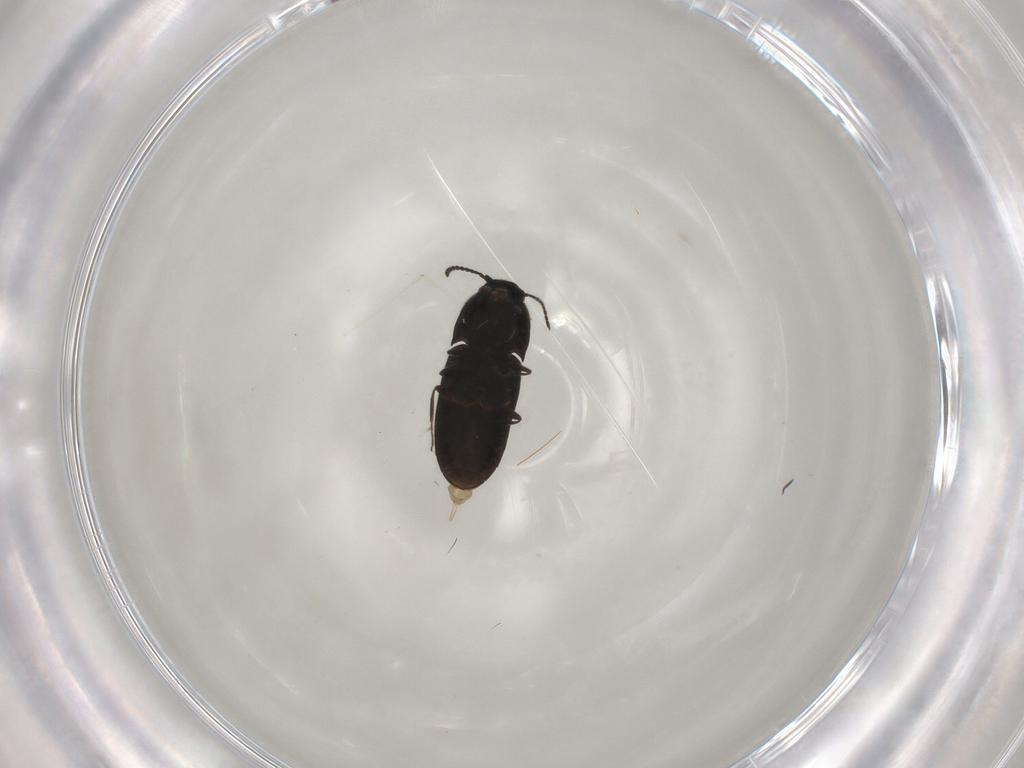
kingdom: Animalia
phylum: Arthropoda
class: Insecta
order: Coleoptera
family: Elateridae
